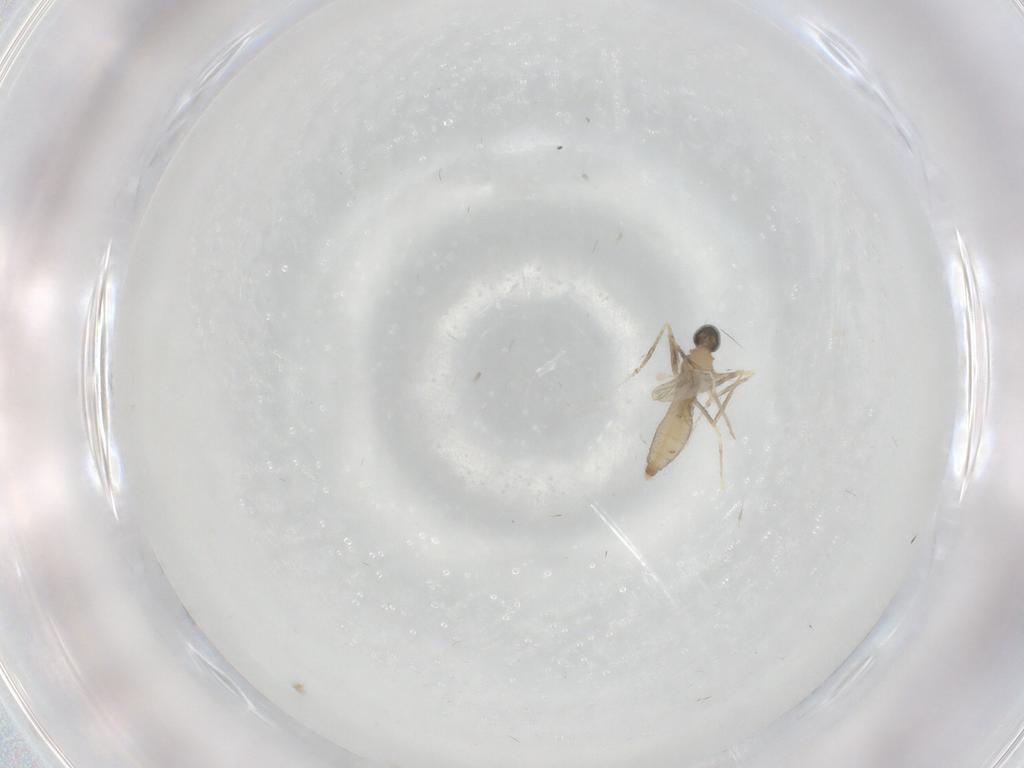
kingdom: Animalia
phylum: Arthropoda
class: Insecta
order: Diptera
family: Cecidomyiidae
